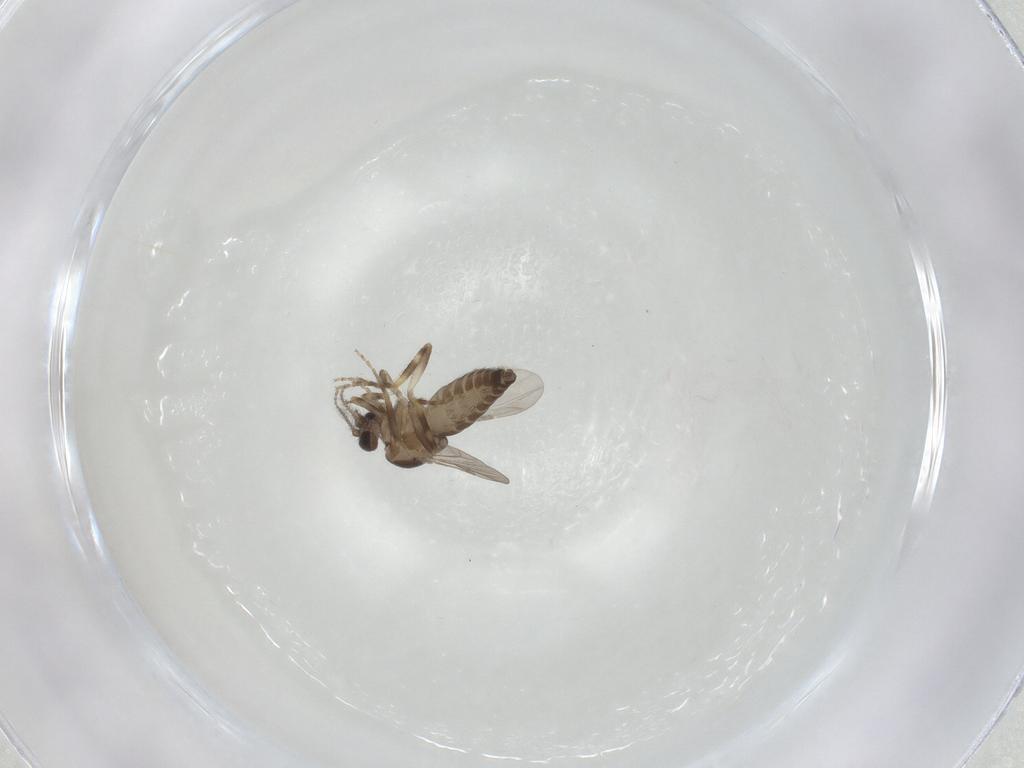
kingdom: Animalia
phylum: Arthropoda
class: Insecta
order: Diptera
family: Ceratopogonidae
